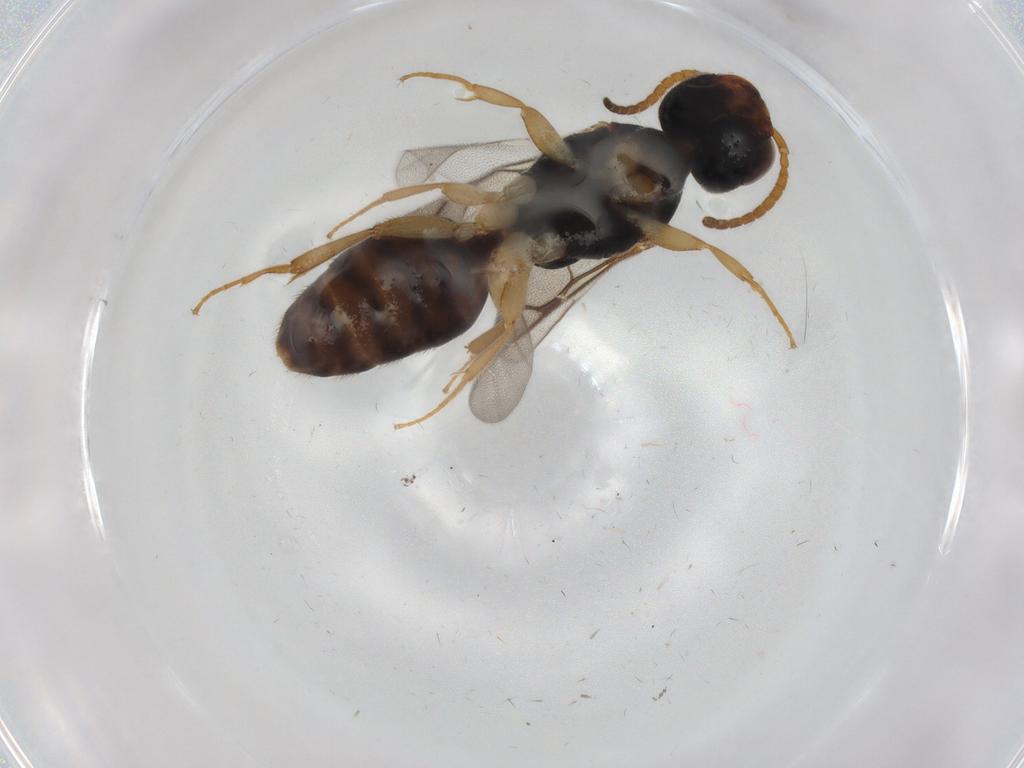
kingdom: Animalia
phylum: Arthropoda
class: Insecta
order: Hymenoptera
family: Bethylidae
